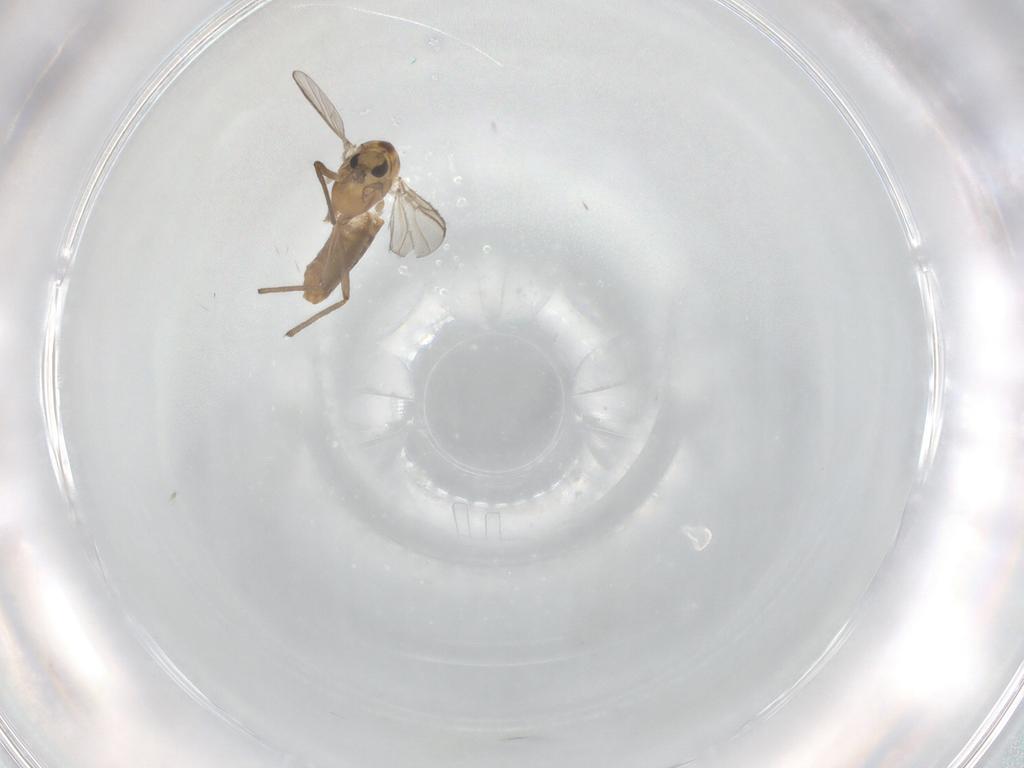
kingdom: Animalia
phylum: Arthropoda
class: Insecta
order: Diptera
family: Chironomidae
